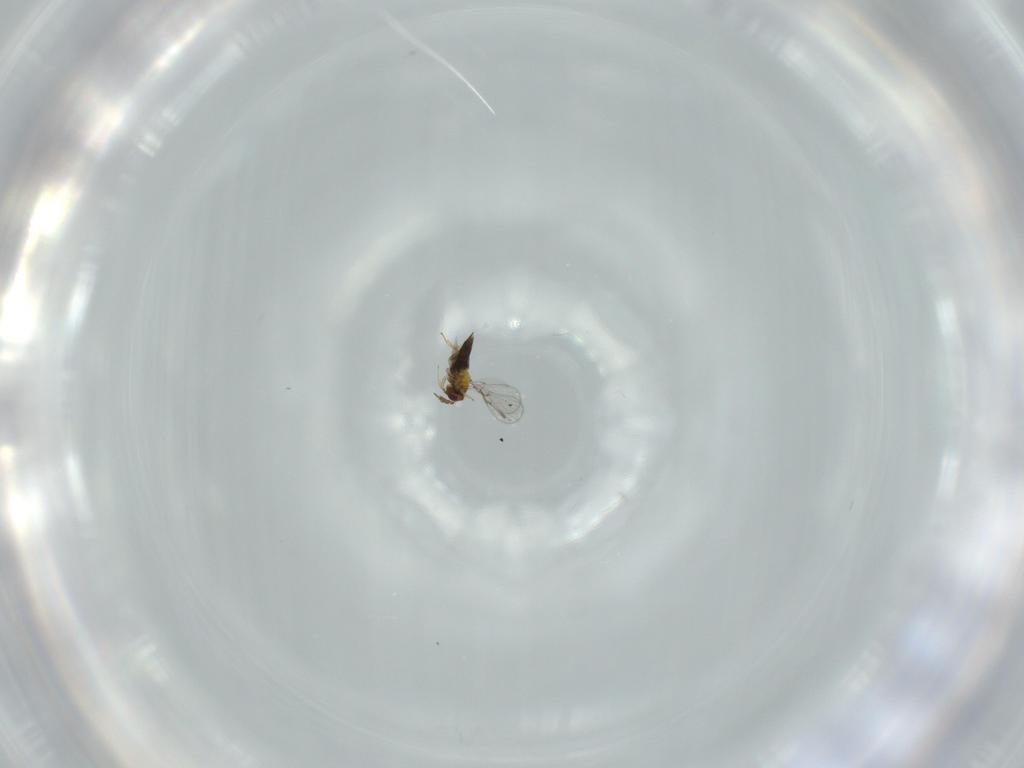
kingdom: Animalia
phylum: Arthropoda
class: Insecta
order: Hymenoptera
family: Trichogrammatidae
